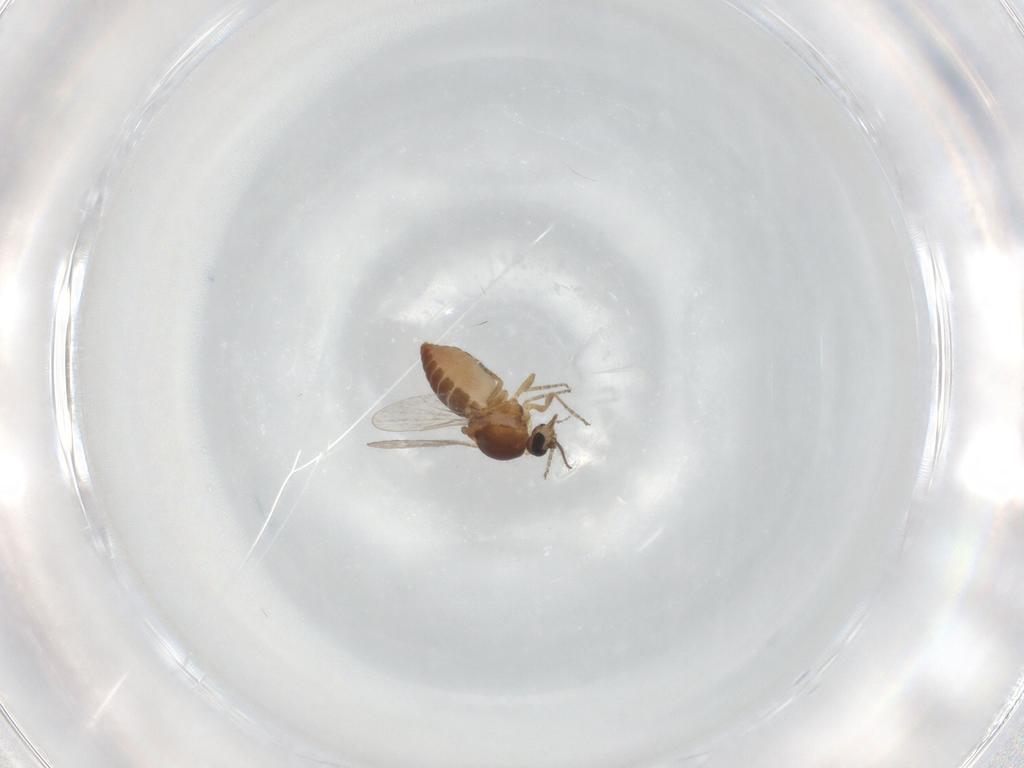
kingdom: Animalia
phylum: Arthropoda
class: Insecta
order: Diptera
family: Ceratopogonidae
